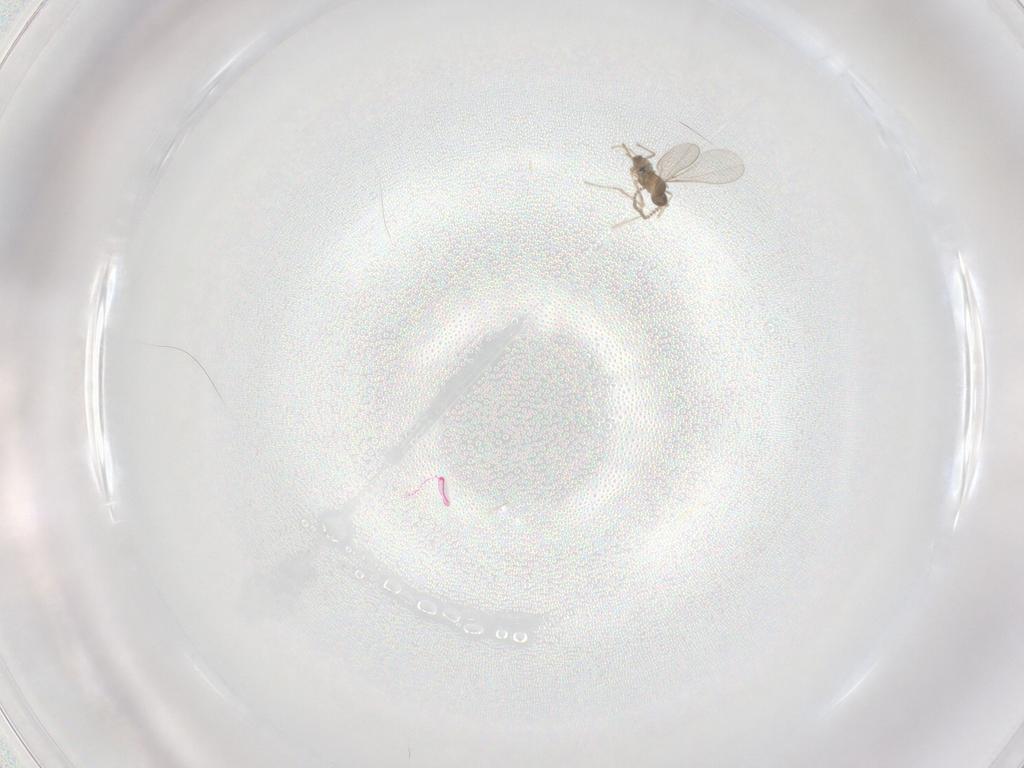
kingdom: Animalia
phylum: Arthropoda
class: Insecta
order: Diptera
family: Cecidomyiidae
